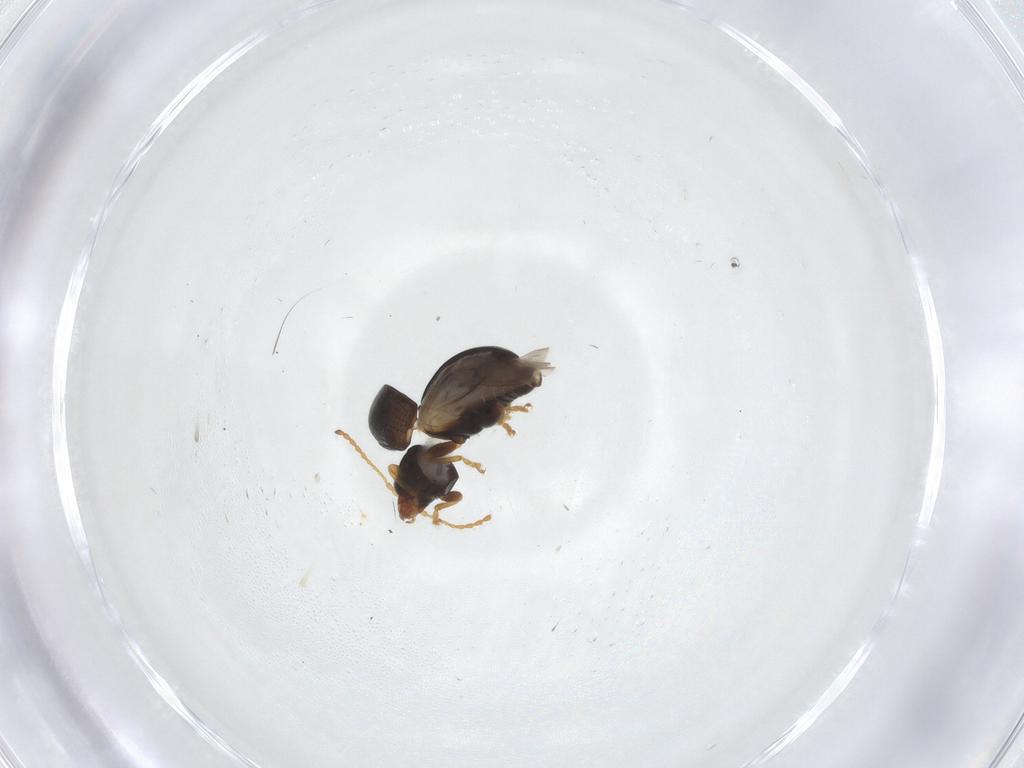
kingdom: Animalia
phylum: Arthropoda
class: Insecta
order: Coleoptera
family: Chrysomelidae
